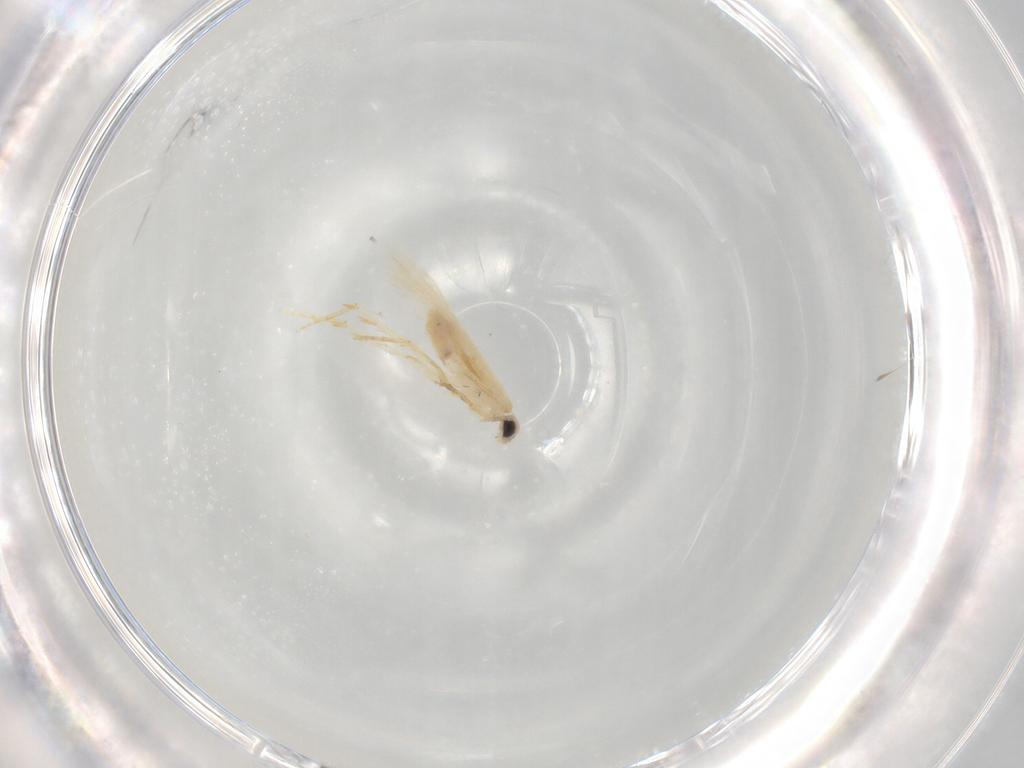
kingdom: Animalia
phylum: Arthropoda
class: Insecta
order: Lepidoptera
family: Nepticulidae
